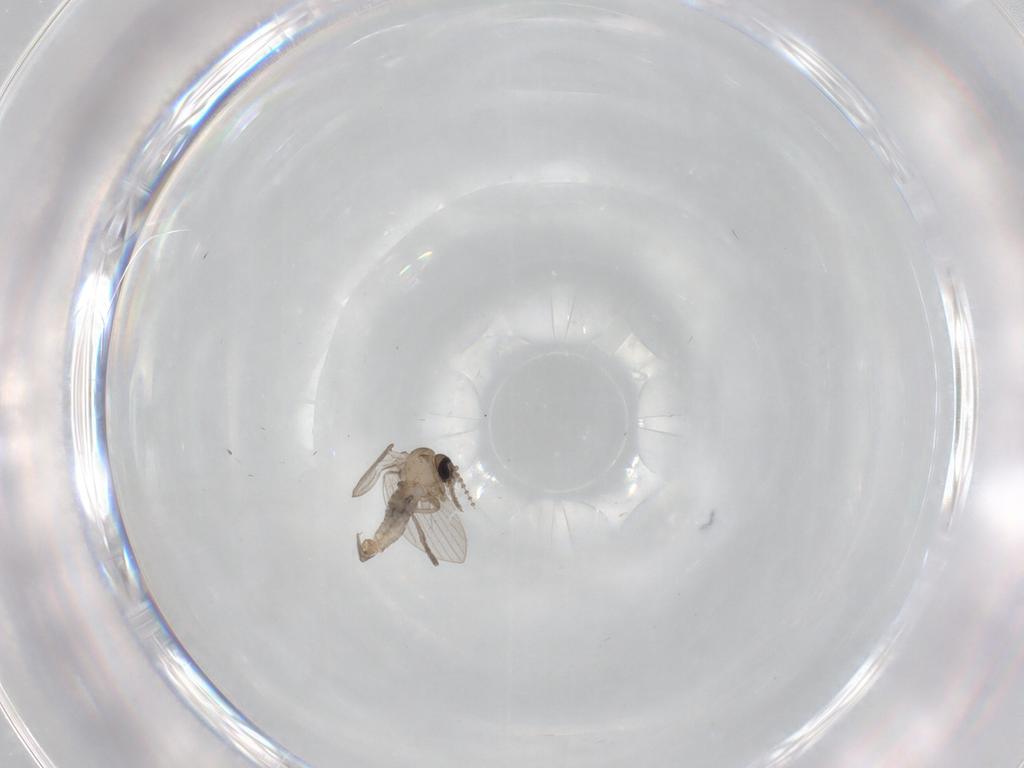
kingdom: Animalia
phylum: Arthropoda
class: Insecta
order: Diptera
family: Psychodidae
